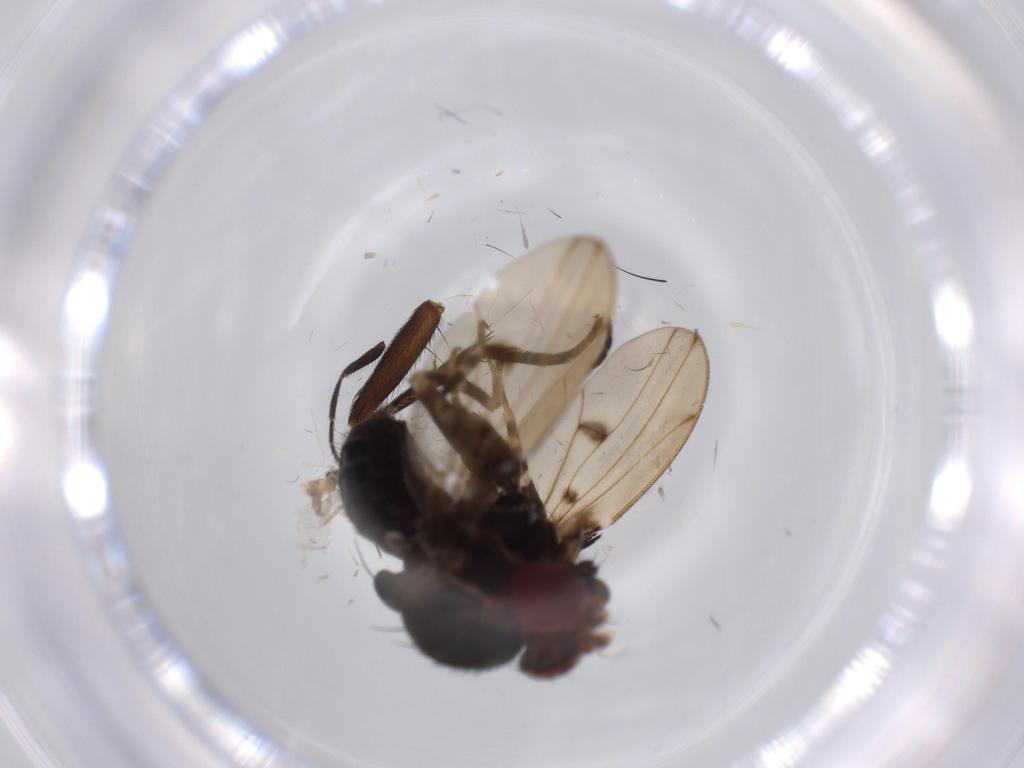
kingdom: Animalia
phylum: Arthropoda
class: Insecta
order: Diptera
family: Drosophilidae
